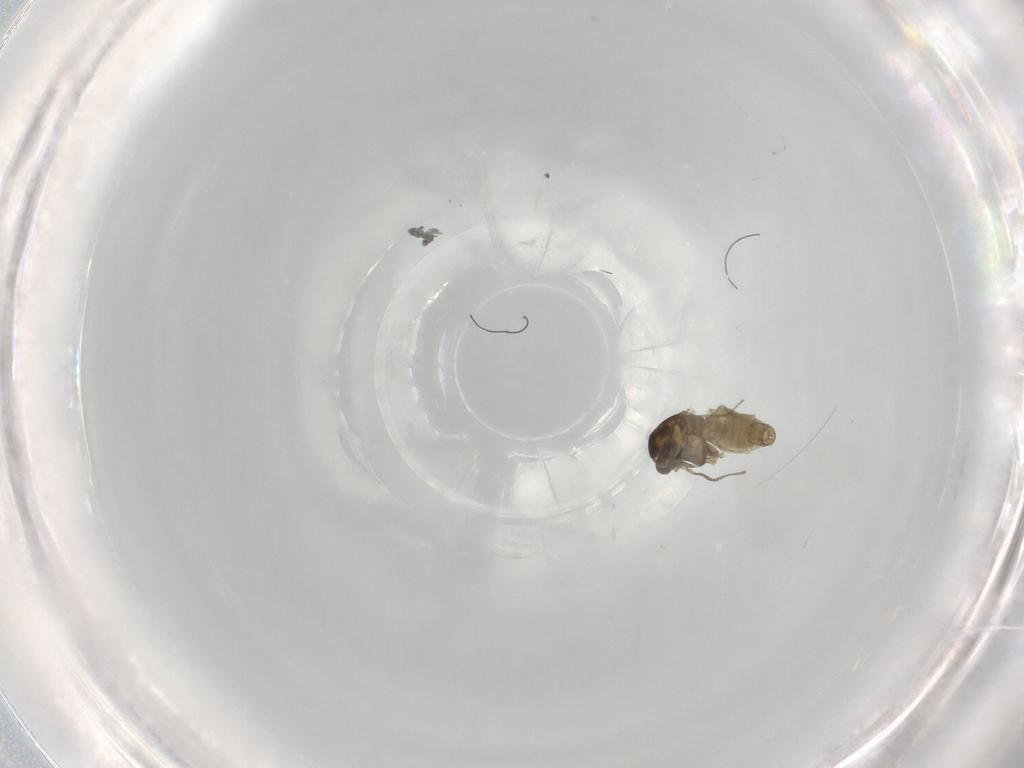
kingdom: Animalia
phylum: Arthropoda
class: Insecta
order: Diptera
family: Chironomidae
